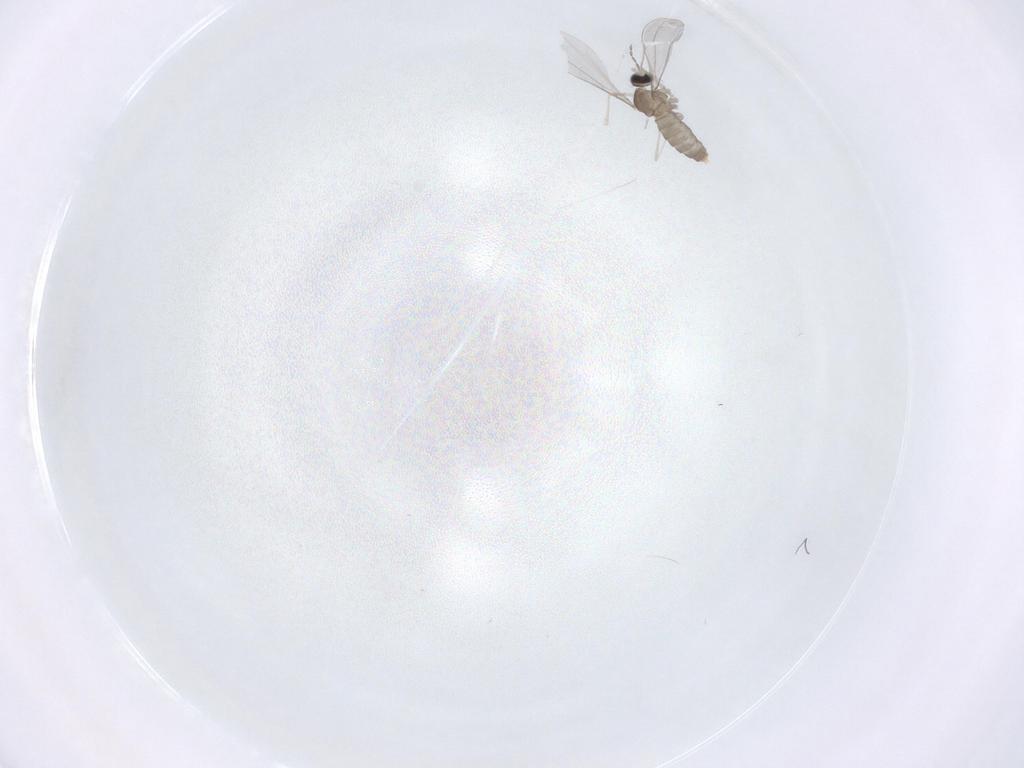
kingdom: Animalia
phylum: Arthropoda
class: Insecta
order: Diptera
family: Cecidomyiidae
